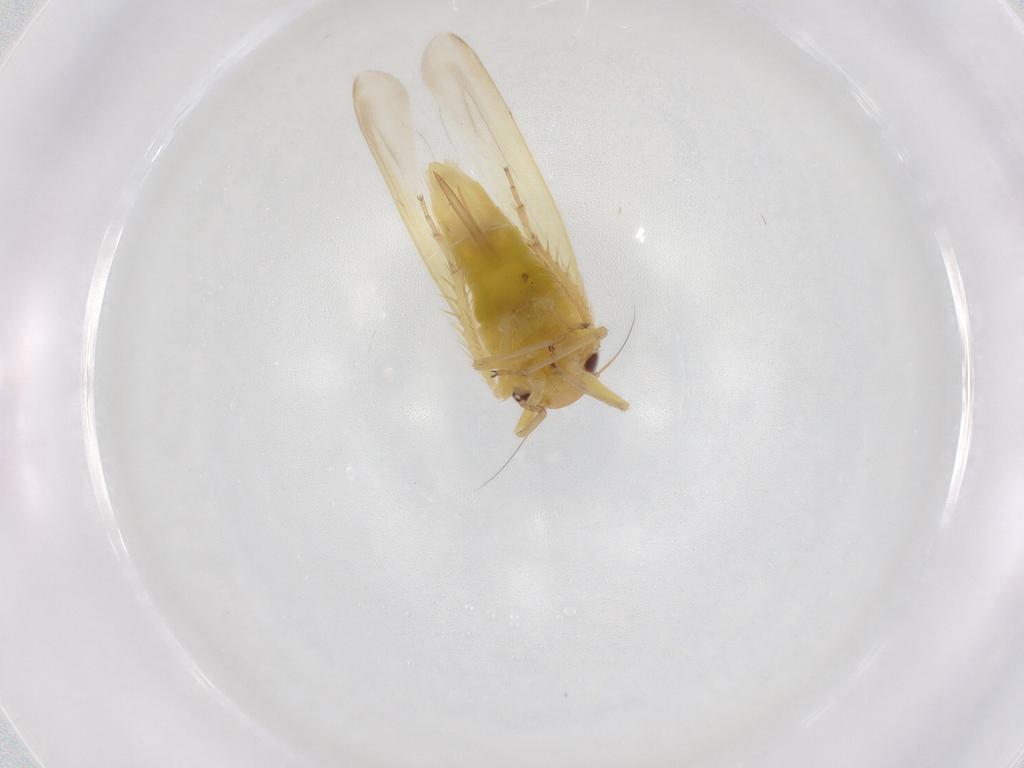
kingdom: Animalia
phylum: Arthropoda
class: Insecta
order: Hemiptera
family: Cicadellidae
